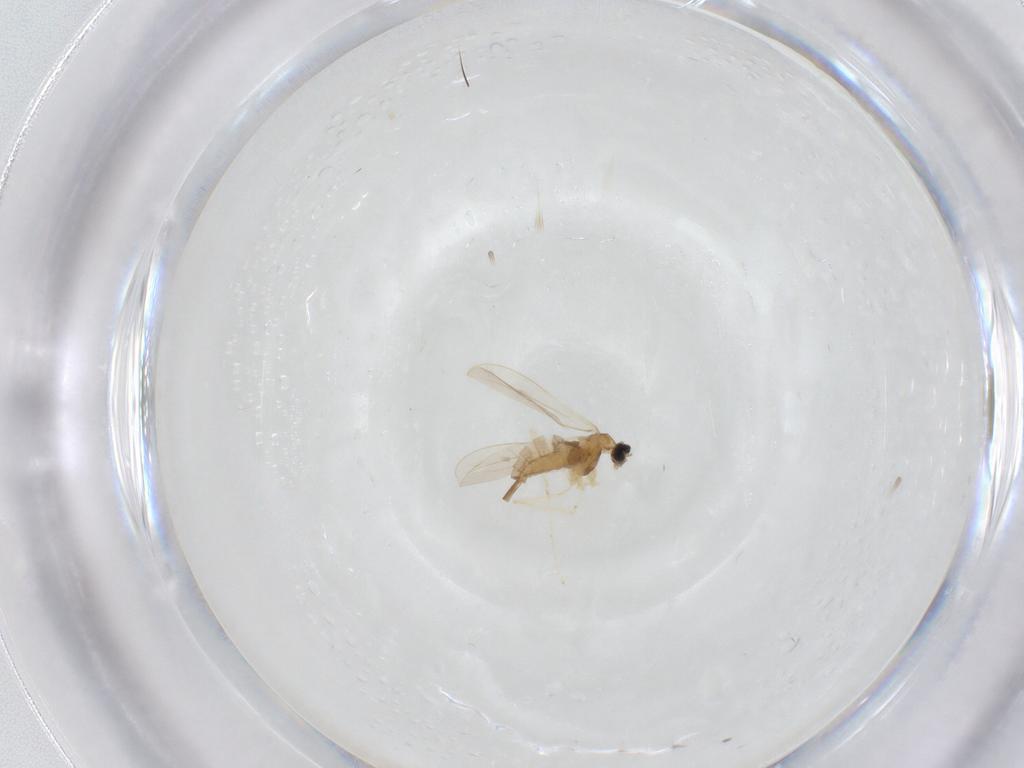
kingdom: Animalia
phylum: Arthropoda
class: Insecta
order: Diptera
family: Cecidomyiidae
